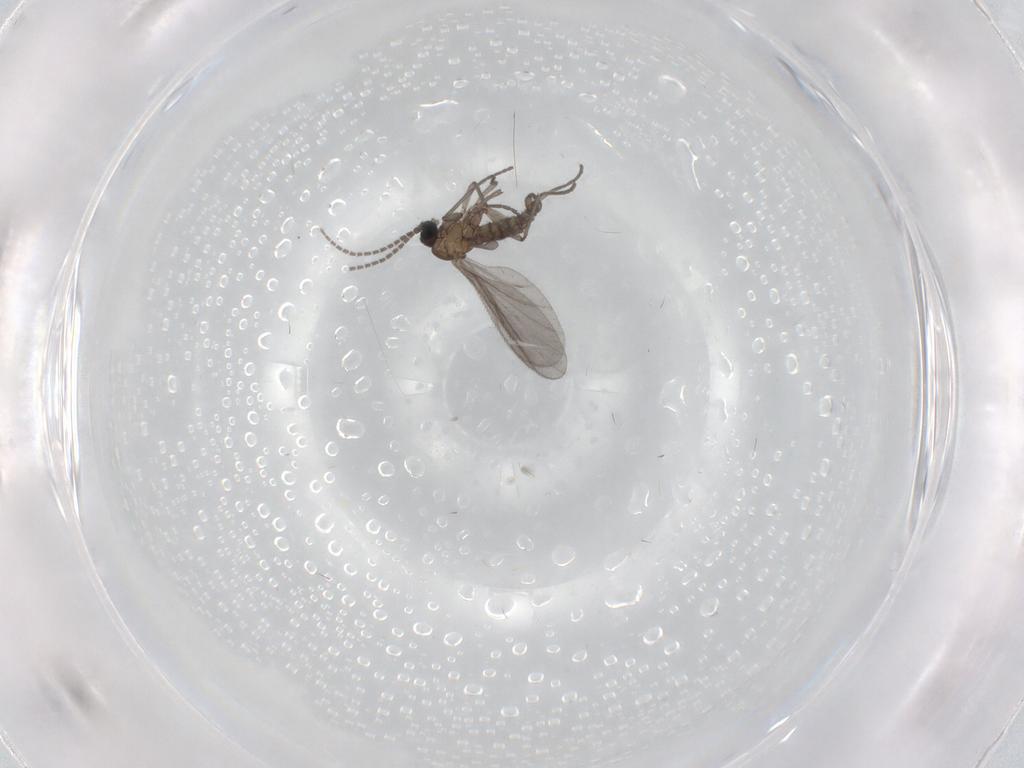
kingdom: Animalia
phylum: Arthropoda
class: Insecta
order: Diptera
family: Sciaridae
